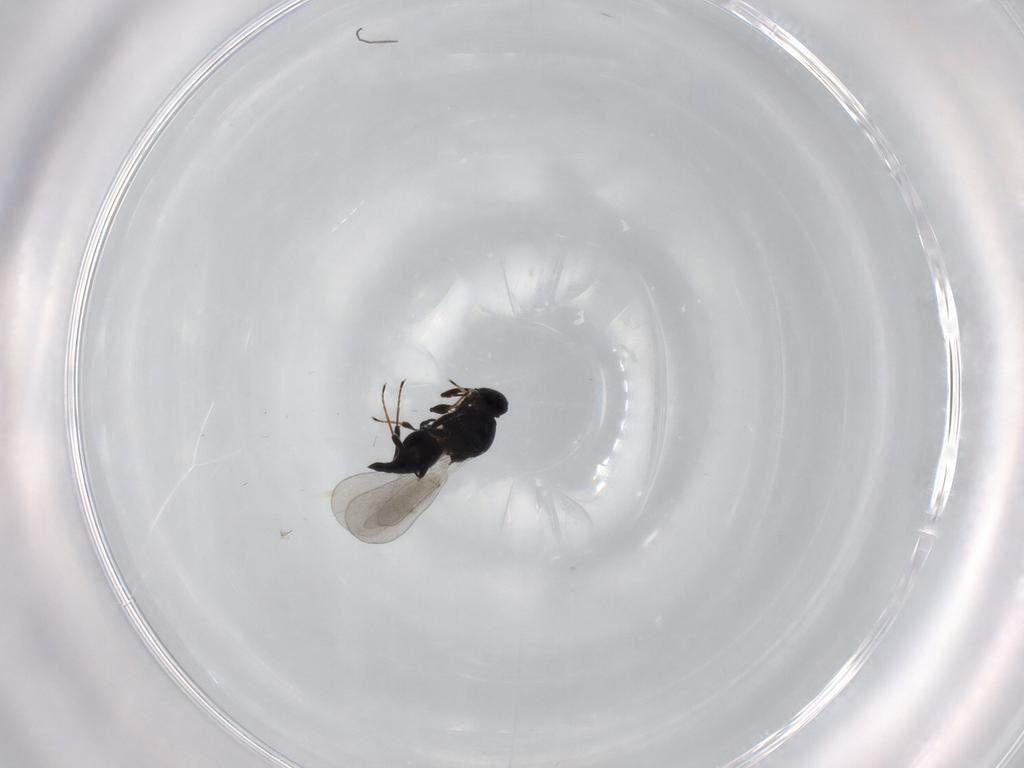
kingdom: Animalia
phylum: Arthropoda
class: Insecta
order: Hymenoptera
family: Platygastridae
